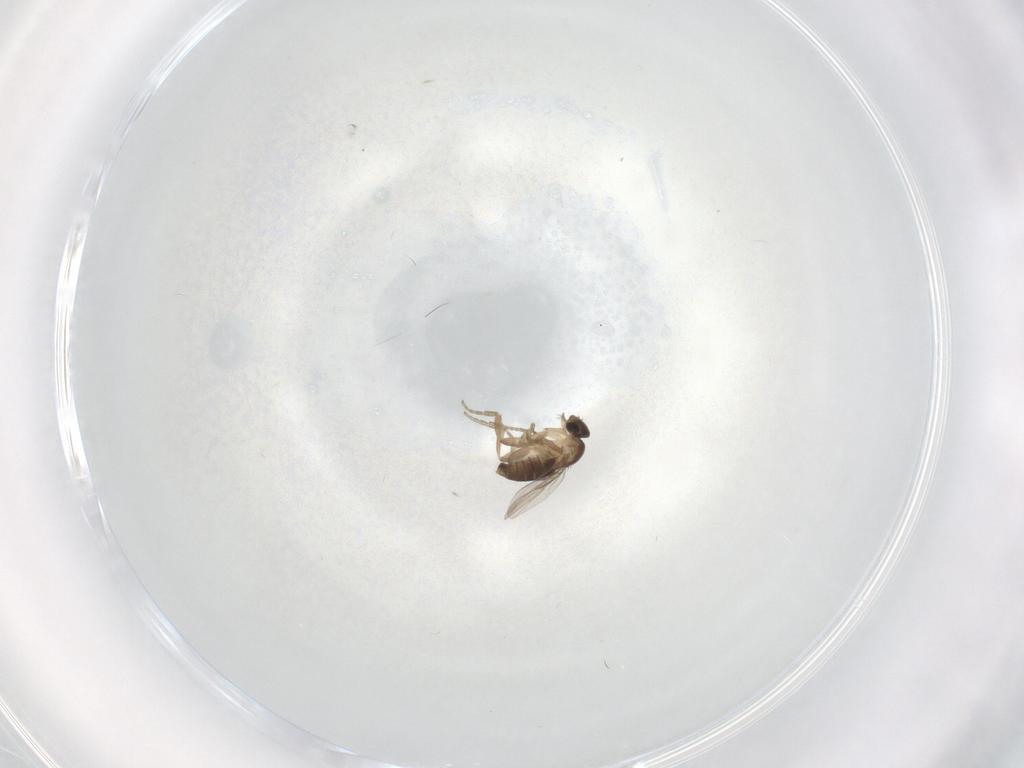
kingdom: Animalia
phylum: Arthropoda
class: Insecta
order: Diptera
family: Phoridae
